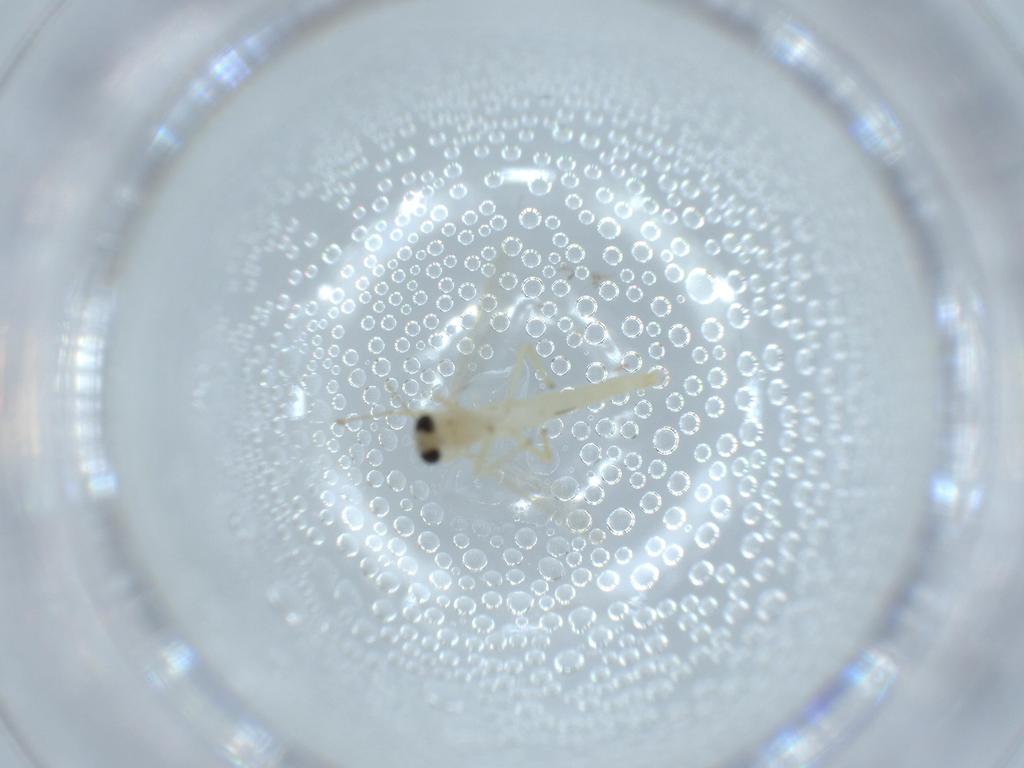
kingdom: Animalia
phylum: Arthropoda
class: Insecta
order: Diptera
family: Chironomidae
